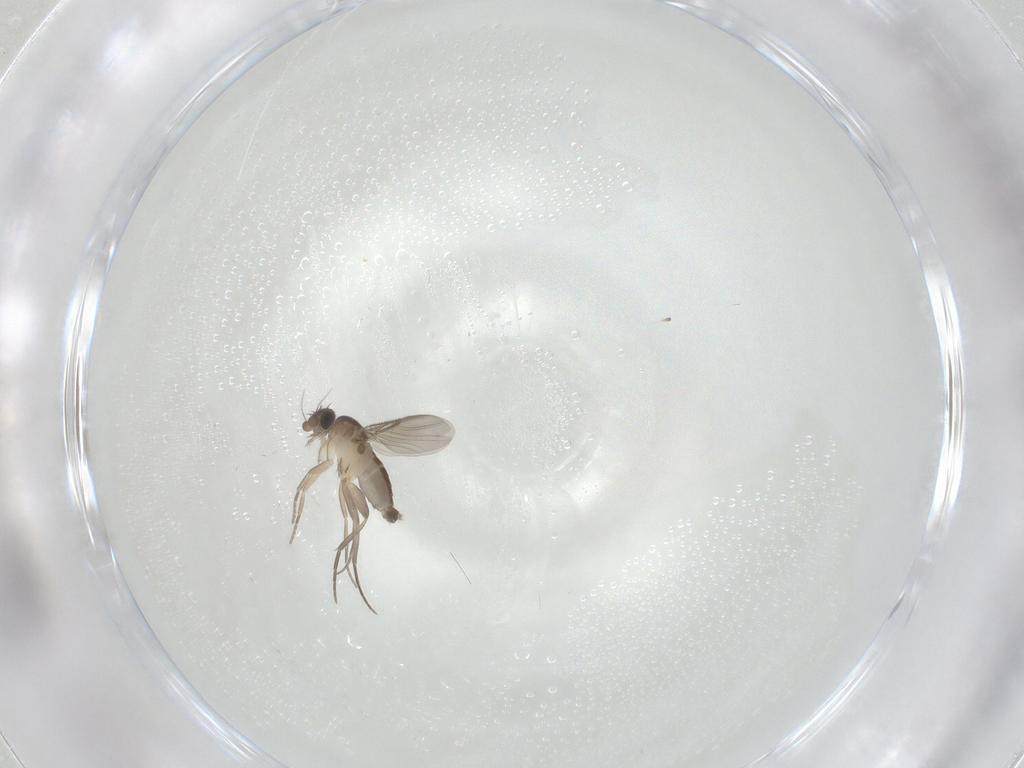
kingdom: Animalia
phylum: Arthropoda
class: Insecta
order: Diptera
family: Phoridae
